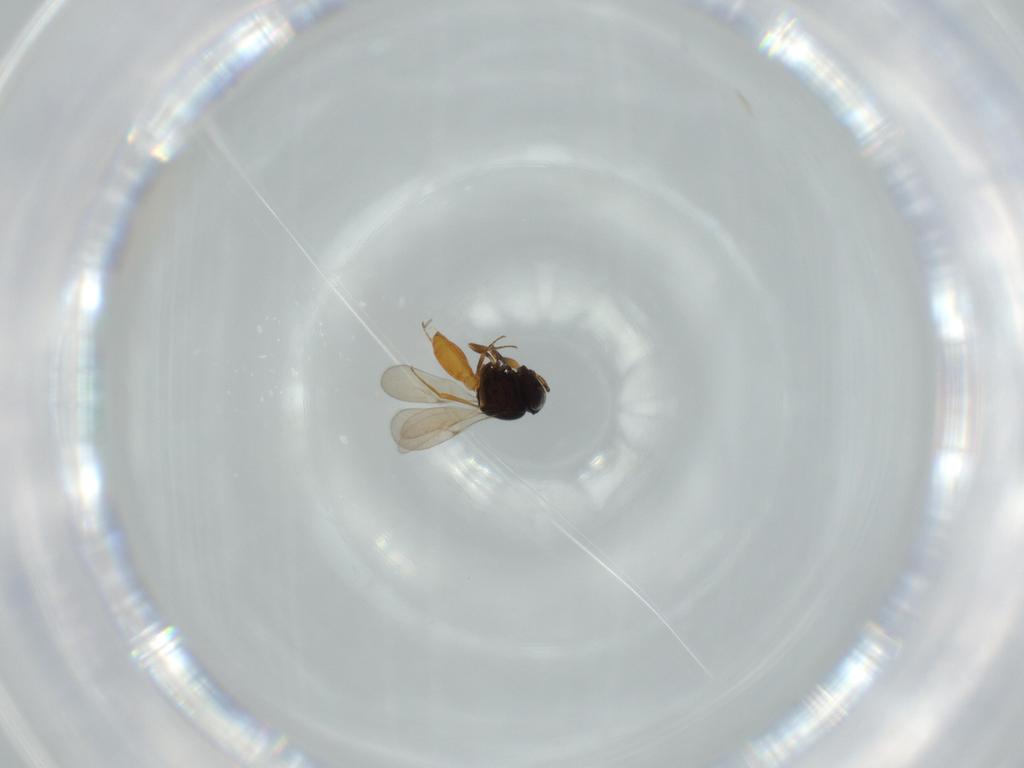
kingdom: Animalia
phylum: Arthropoda
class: Insecta
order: Hymenoptera
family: Scelionidae
